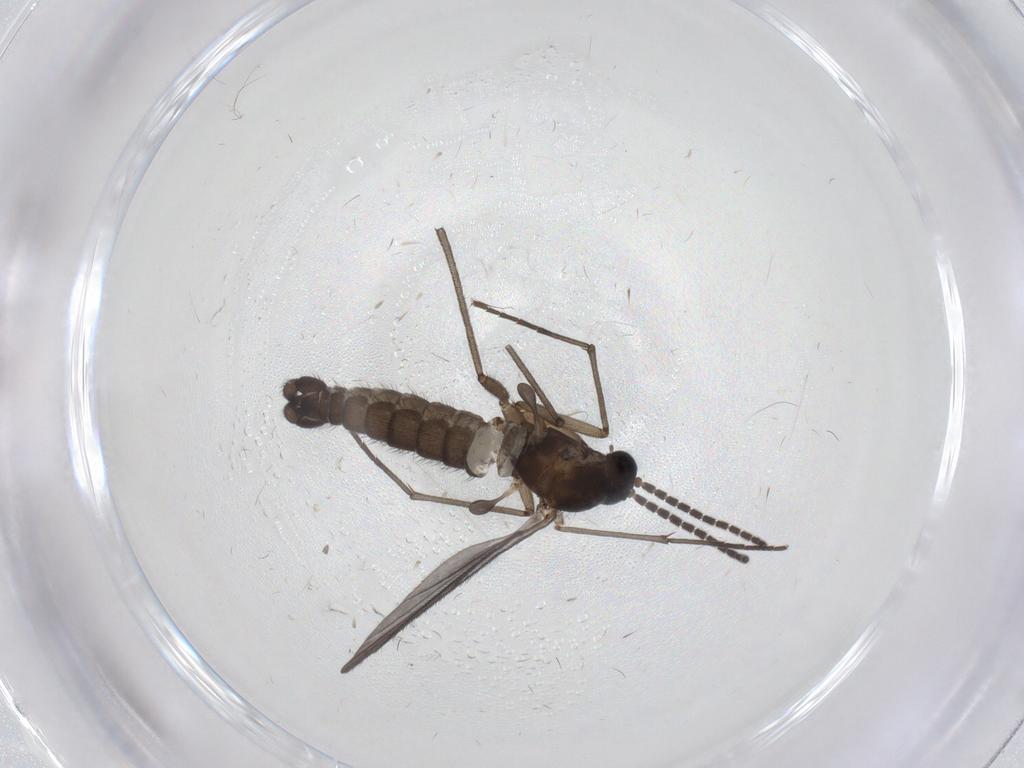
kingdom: Animalia
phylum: Arthropoda
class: Insecta
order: Diptera
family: Sciaridae
